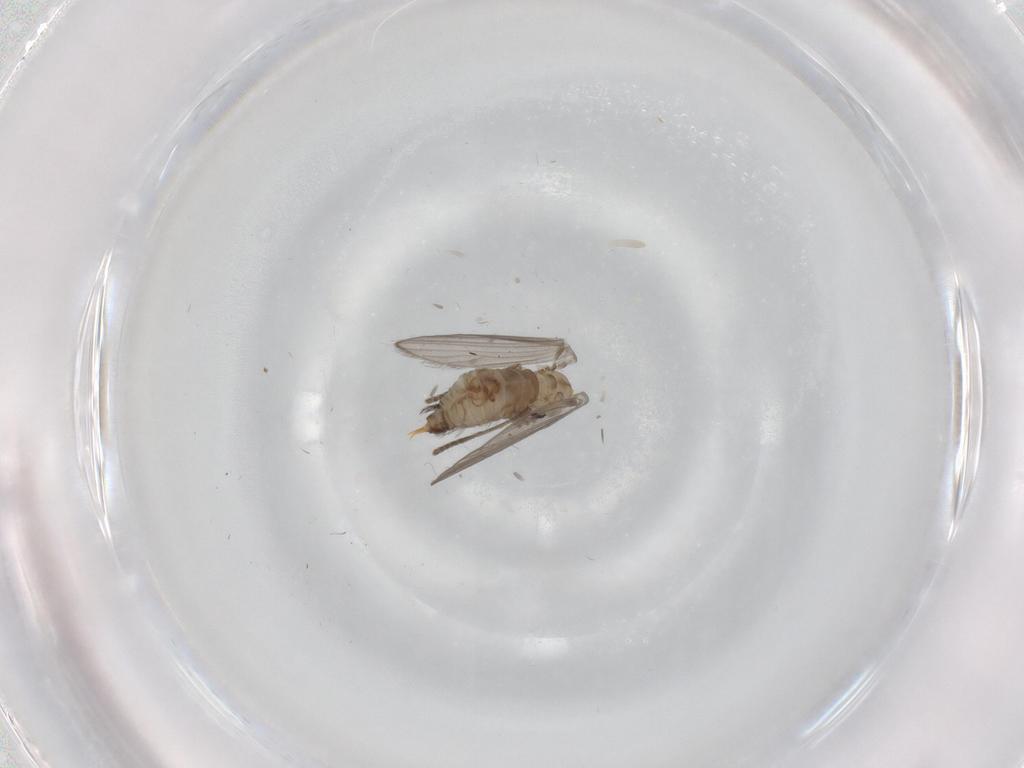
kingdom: Animalia
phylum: Arthropoda
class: Insecta
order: Diptera
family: Psychodidae
